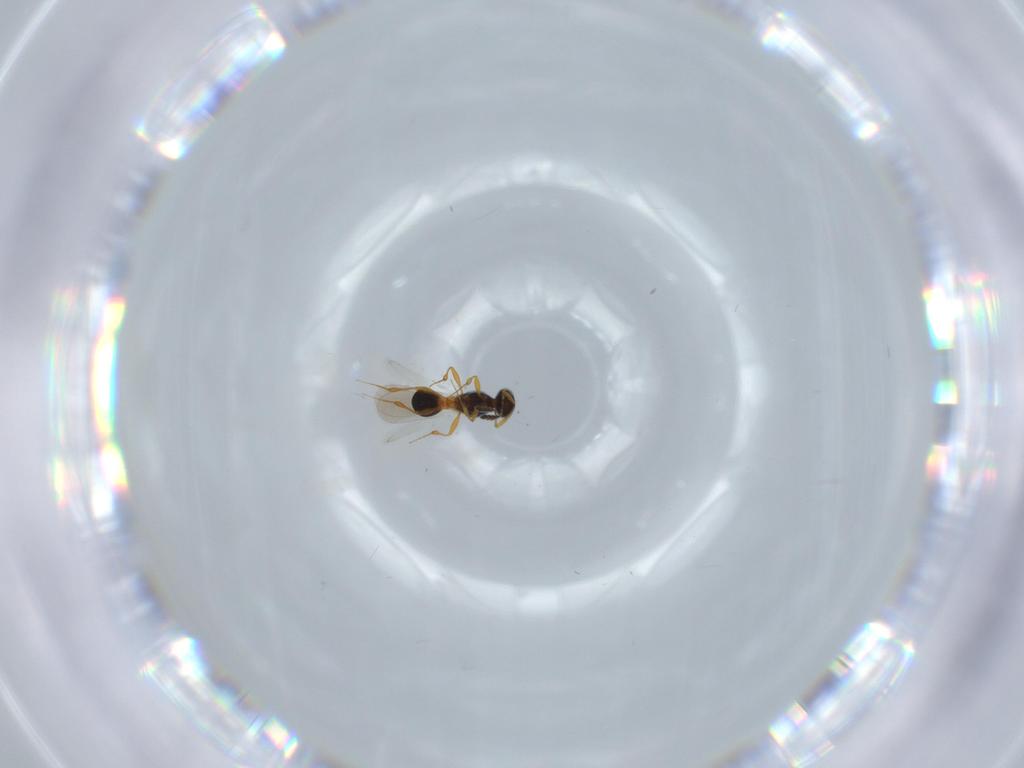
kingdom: Animalia
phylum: Arthropoda
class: Insecta
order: Hymenoptera
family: Platygastridae
